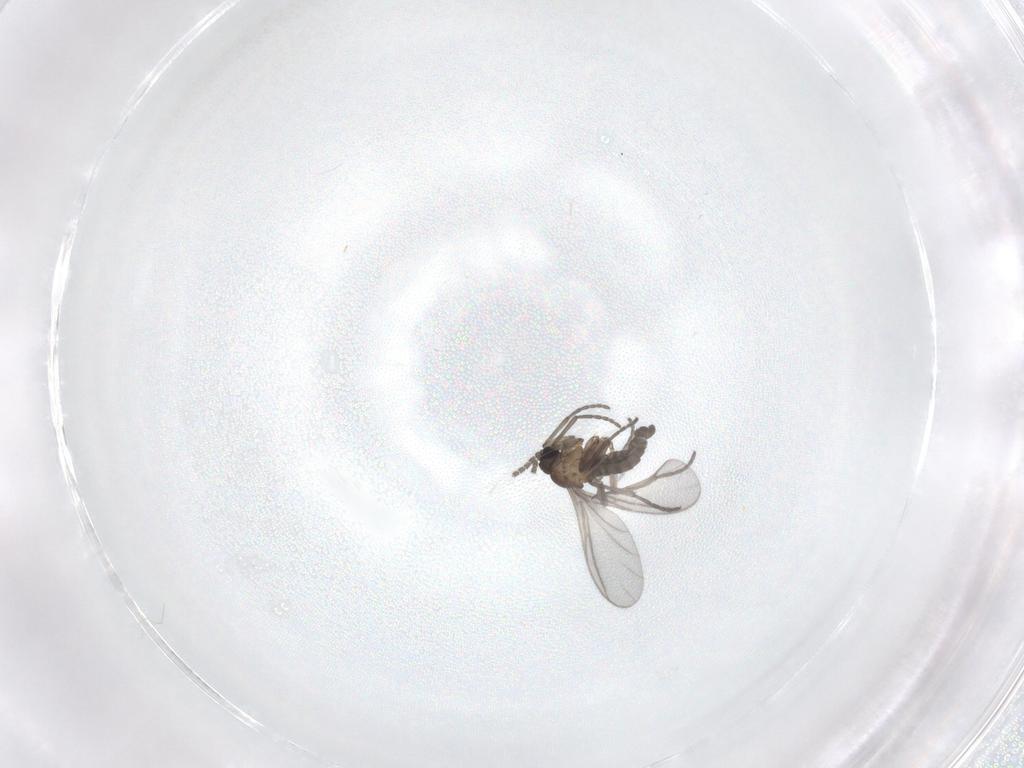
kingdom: Animalia
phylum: Arthropoda
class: Insecta
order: Diptera
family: Sciaridae
